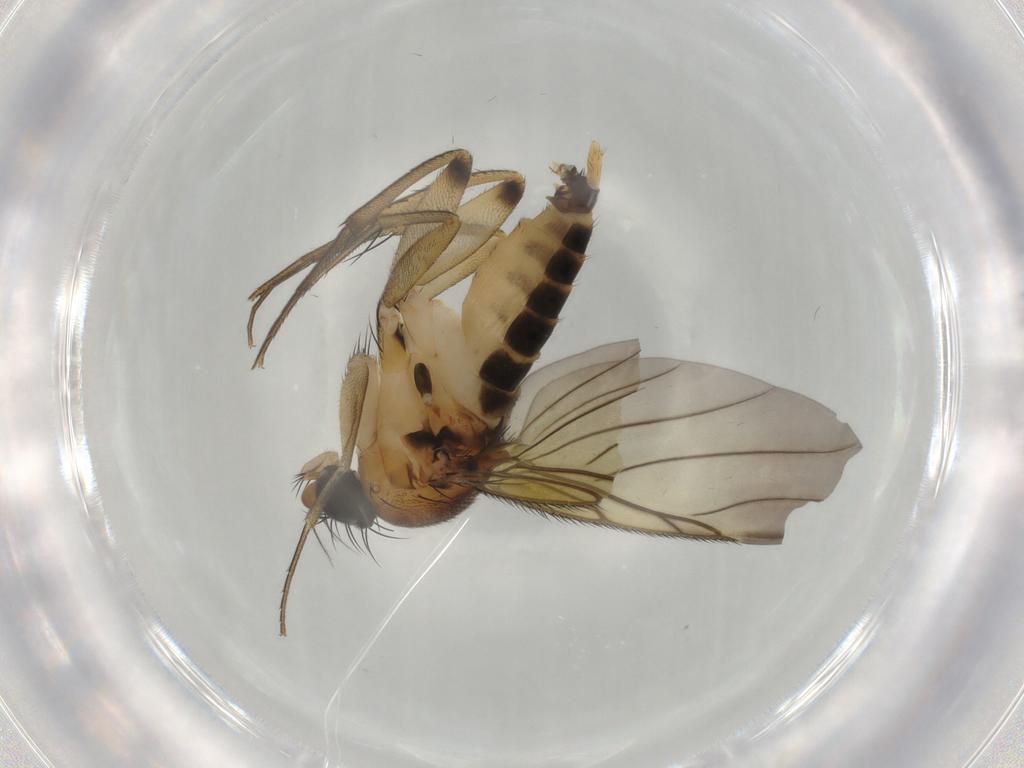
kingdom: Animalia
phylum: Arthropoda
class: Insecta
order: Diptera
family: Phoridae
